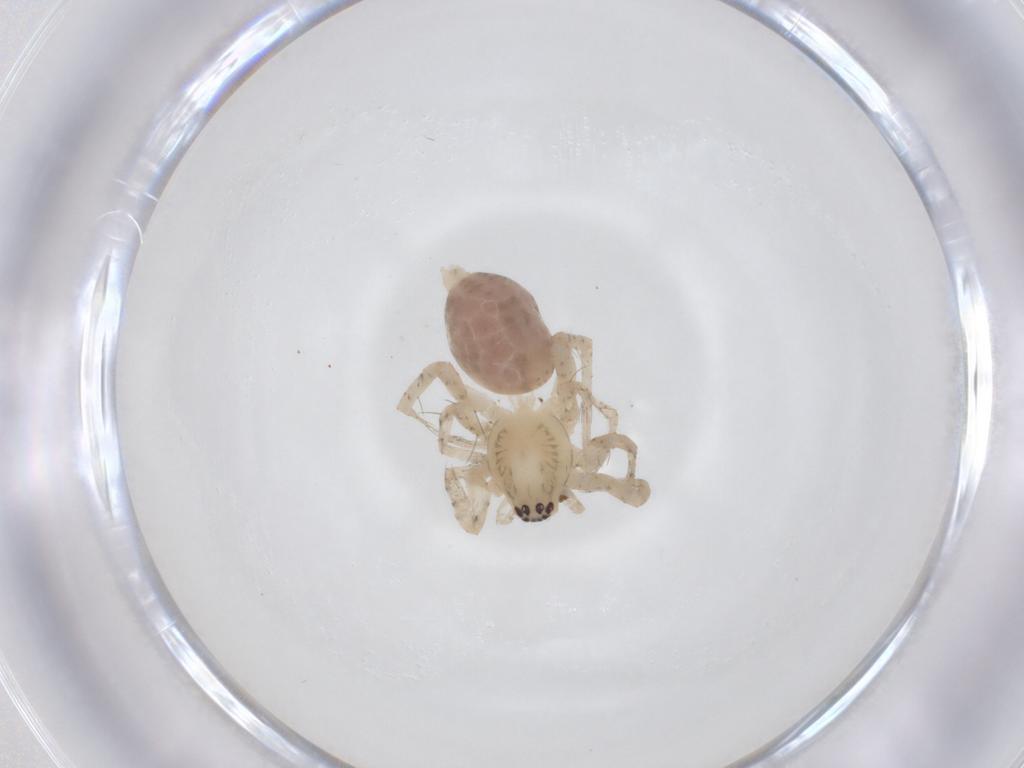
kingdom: Animalia
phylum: Arthropoda
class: Arachnida
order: Araneae
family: Anyphaenidae
